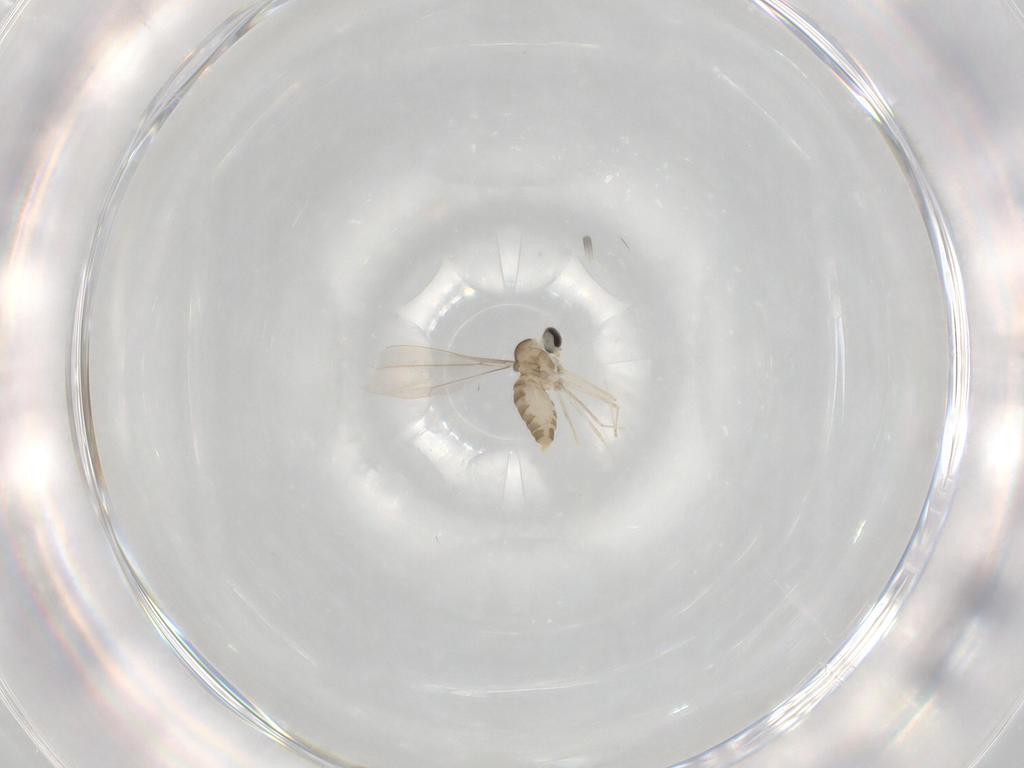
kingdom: Animalia
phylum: Arthropoda
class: Insecta
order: Diptera
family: Cecidomyiidae
